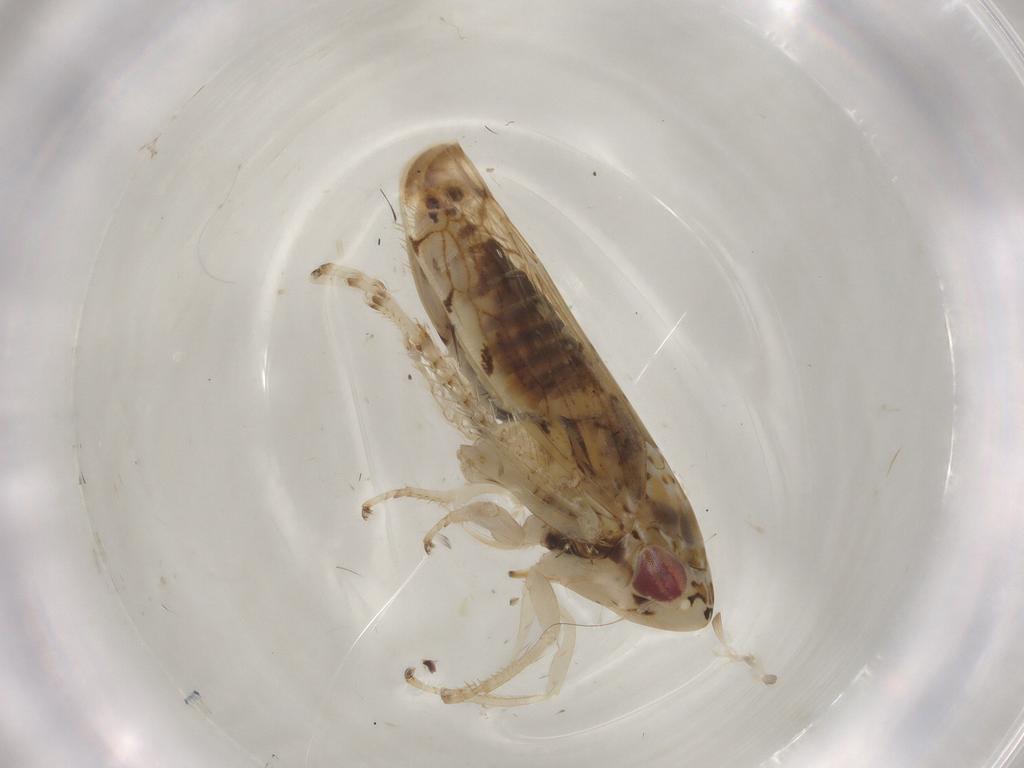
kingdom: Animalia
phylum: Arthropoda
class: Insecta
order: Hemiptera
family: Cicadellidae
